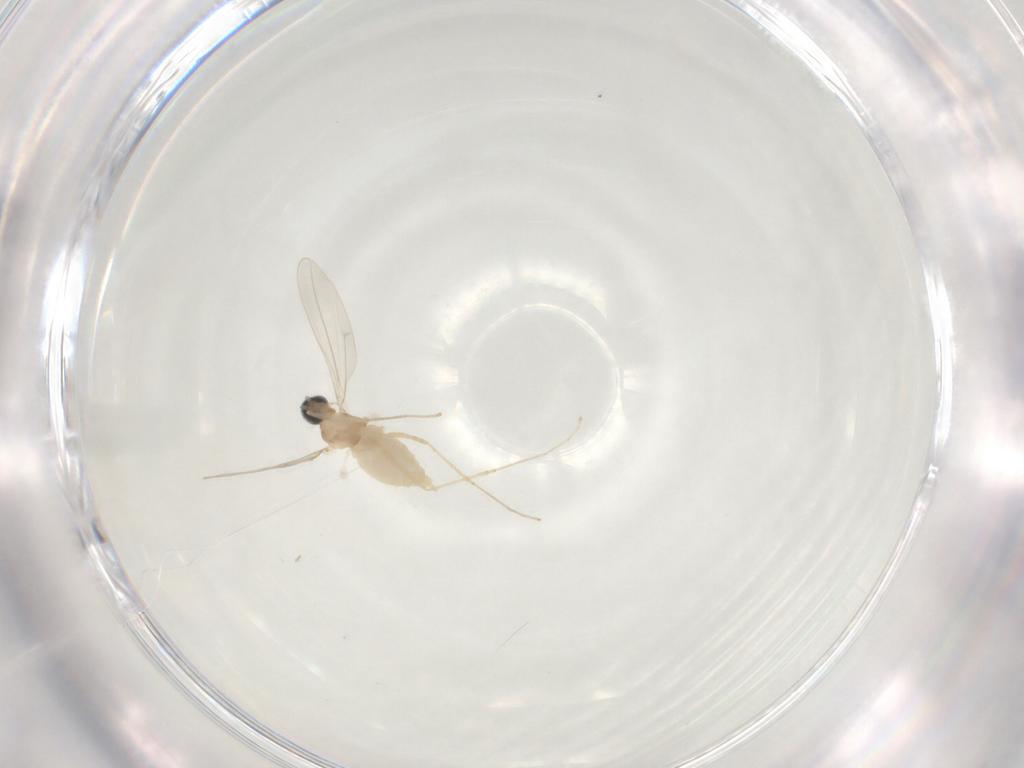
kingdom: Animalia
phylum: Arthropoda
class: Insecta
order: Diptera
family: Cecidomyiidae
